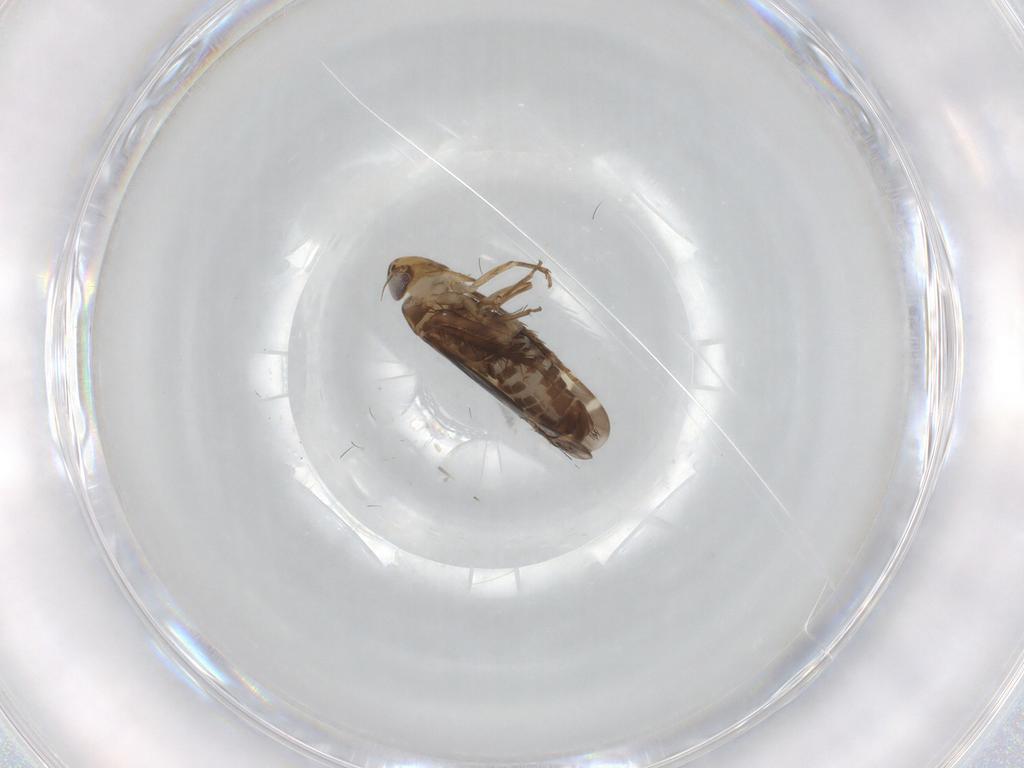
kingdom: Animalia
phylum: Arthropoda
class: Insecta
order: Hemiptera
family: Cicadellidae
